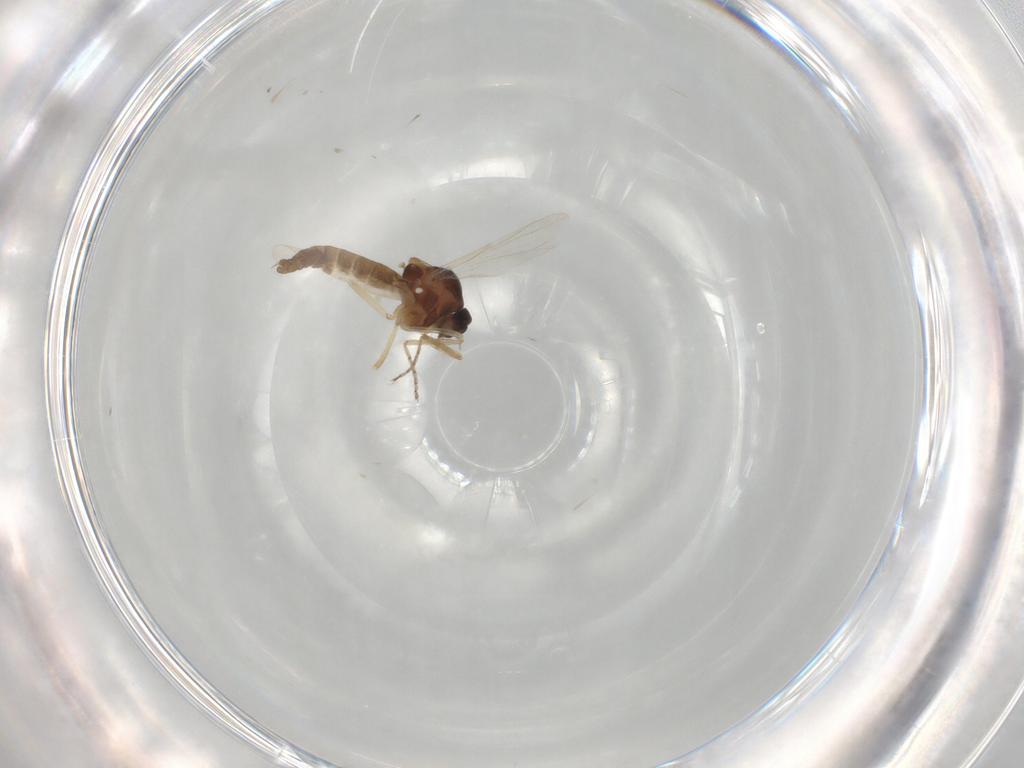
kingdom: Animalia
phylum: Arthropoda
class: Insecta
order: Diptera
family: Ceratopogonidae
